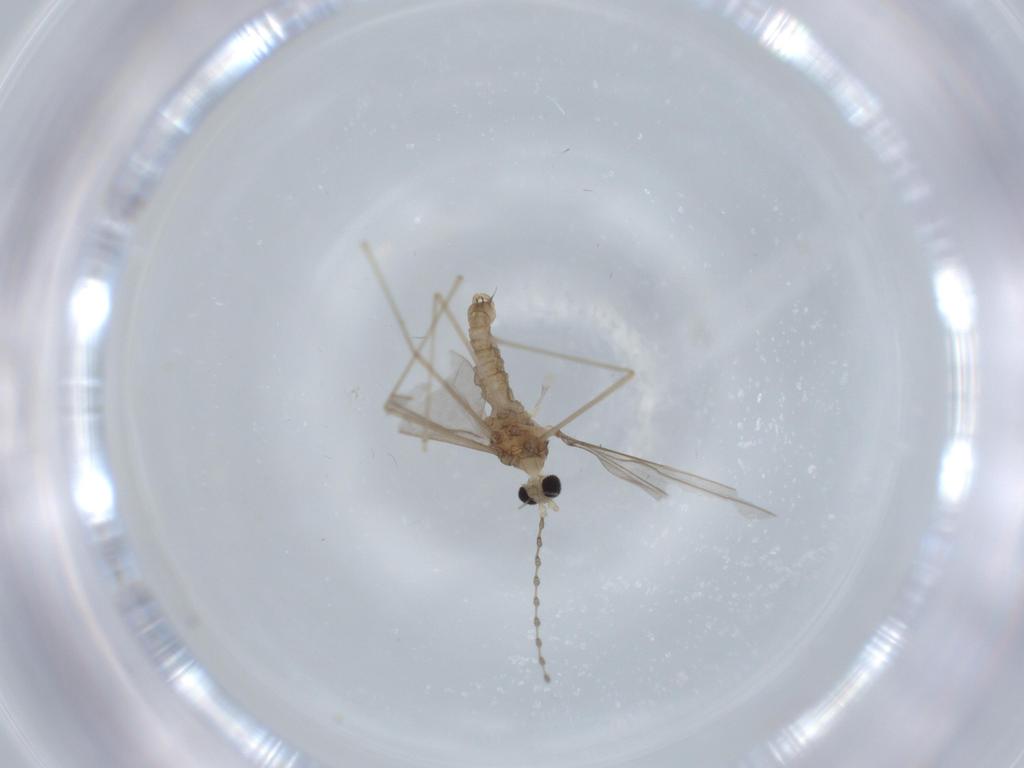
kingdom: Animalia
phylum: Arthropoda
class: Insecta
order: Diptera
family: Cecidomyiidae
